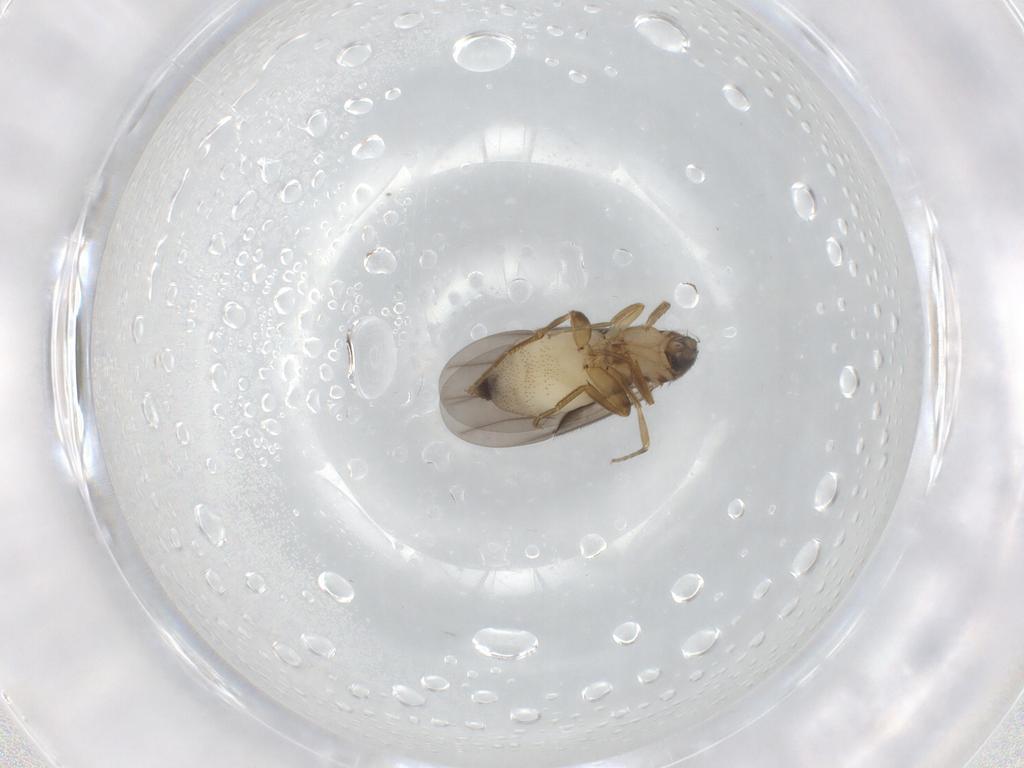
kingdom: Animalia
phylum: Arthropoda
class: Insecta
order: Diptera
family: Phoridae
